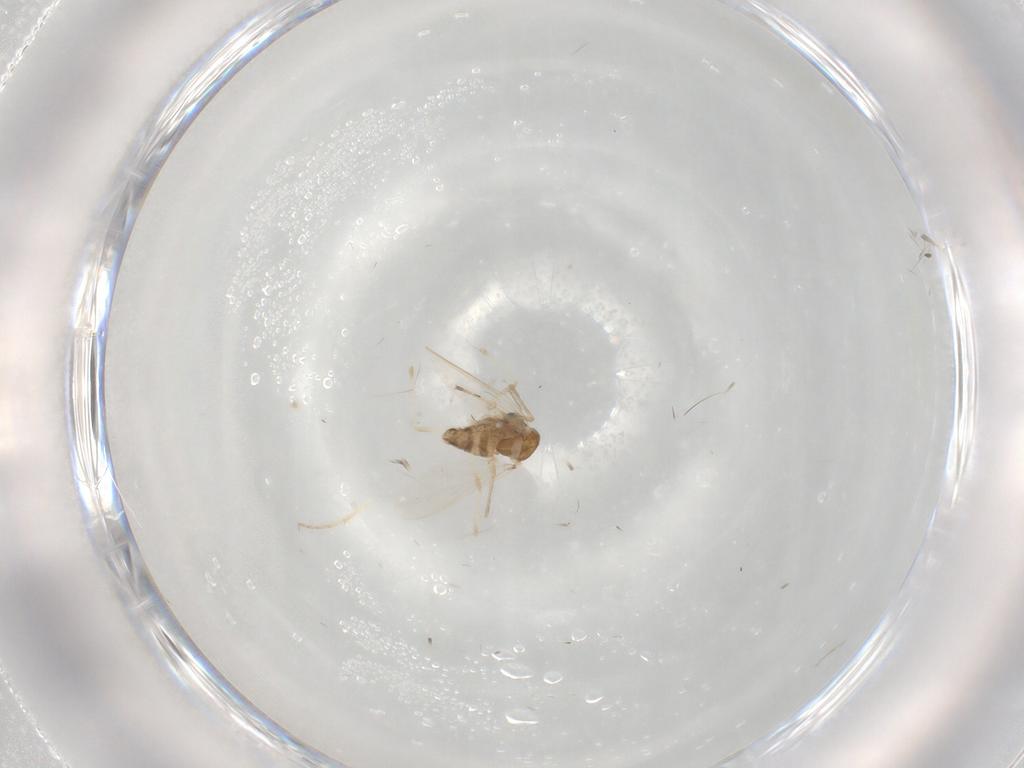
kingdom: Animalia
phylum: Arthropoda
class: Insecta
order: Diptera
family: Chironomidae
